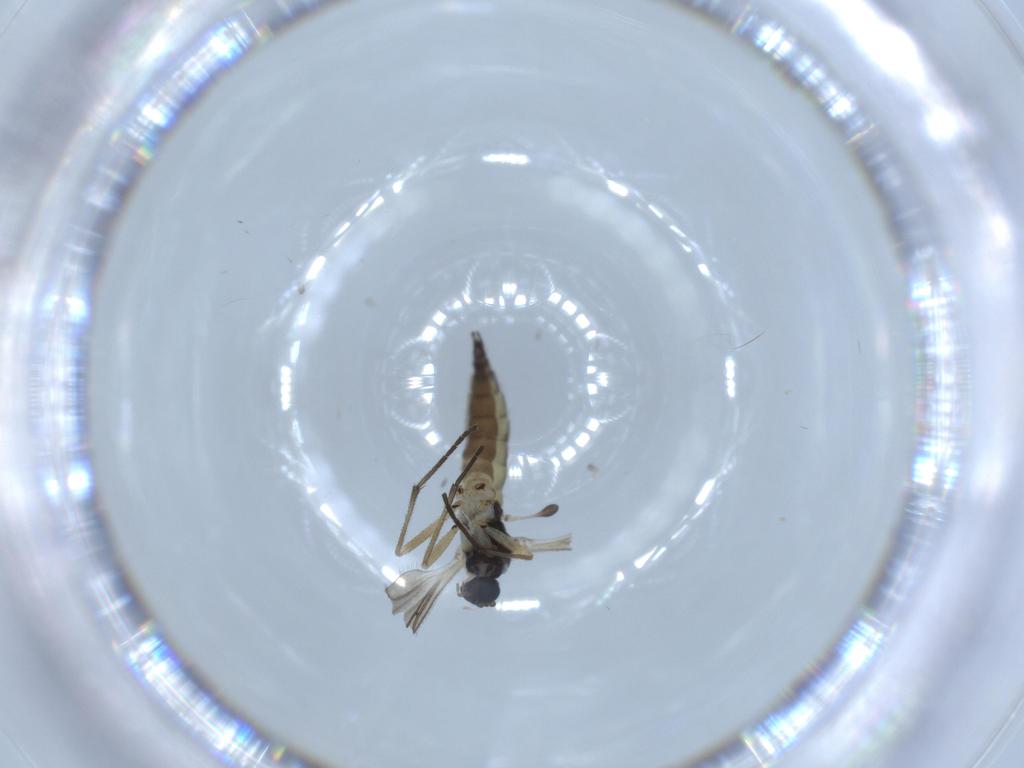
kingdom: Animalia
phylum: Arthropoda
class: Insecta
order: Diptera
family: Sciaridae
